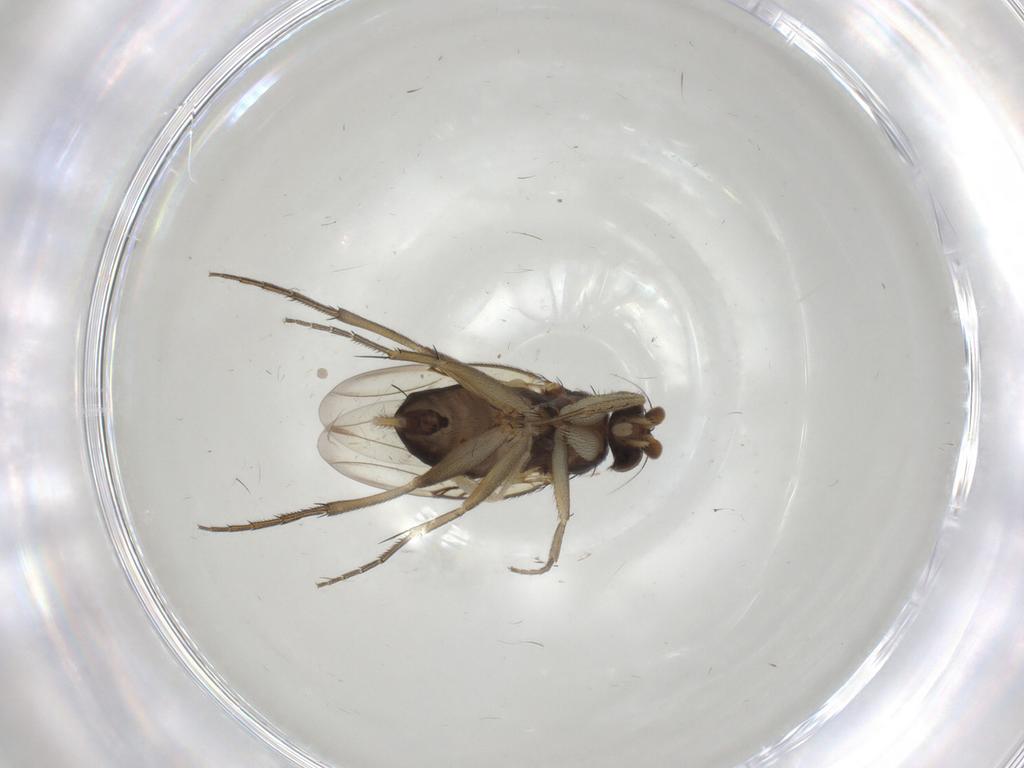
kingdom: Animalia
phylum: Arthropoda
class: Insecta
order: Diptera
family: Phoridae
